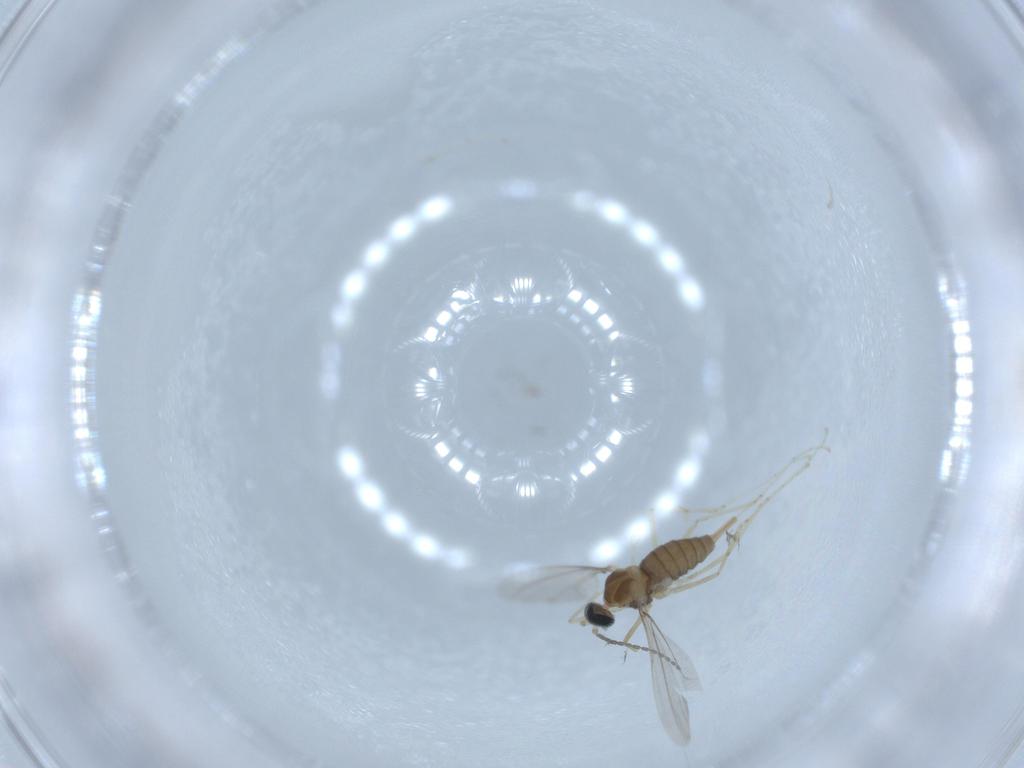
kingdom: Animalia
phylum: Arthropoda
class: Insecta
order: Diptera
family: Cecidomyiidae
